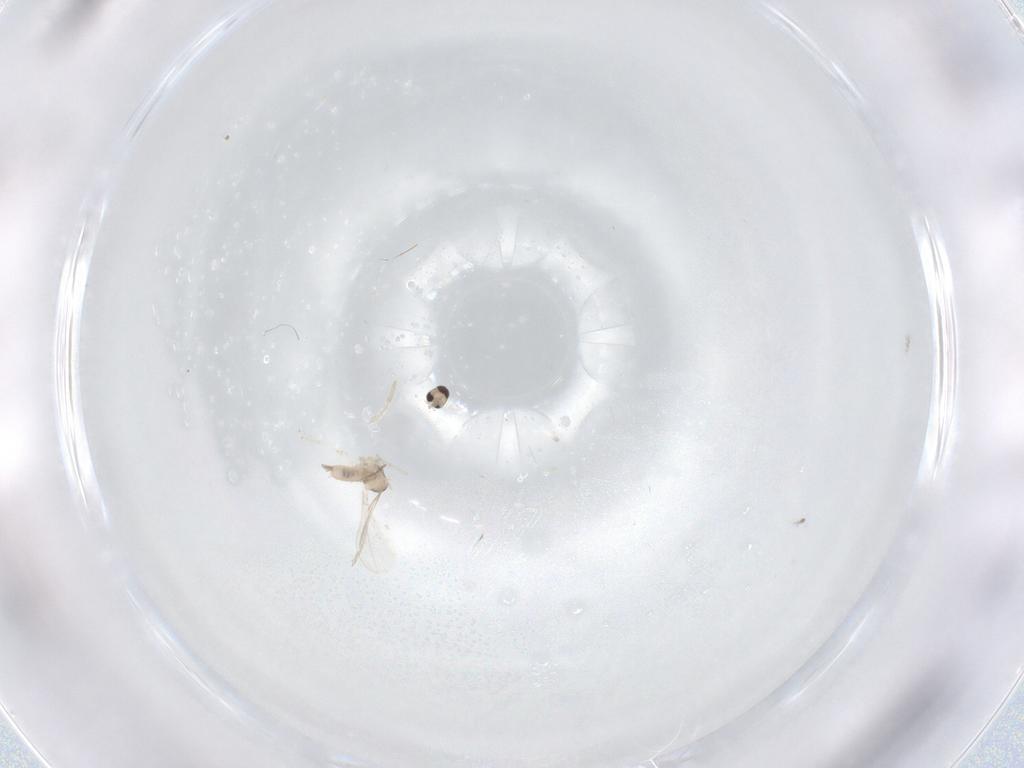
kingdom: Animalia
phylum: Arthropoda
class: Insecta
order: Diptera
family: Cecidomyiidae
